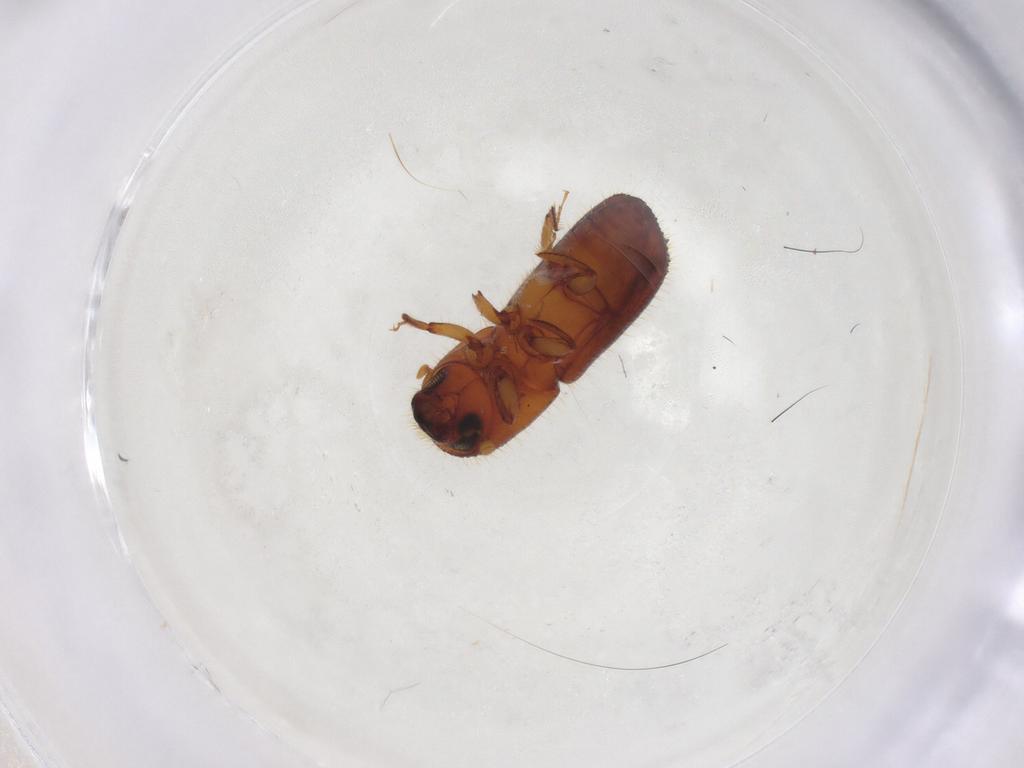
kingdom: Animalia
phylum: Arthropoda
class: Insecta
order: Coleoptera
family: Curculionidae
